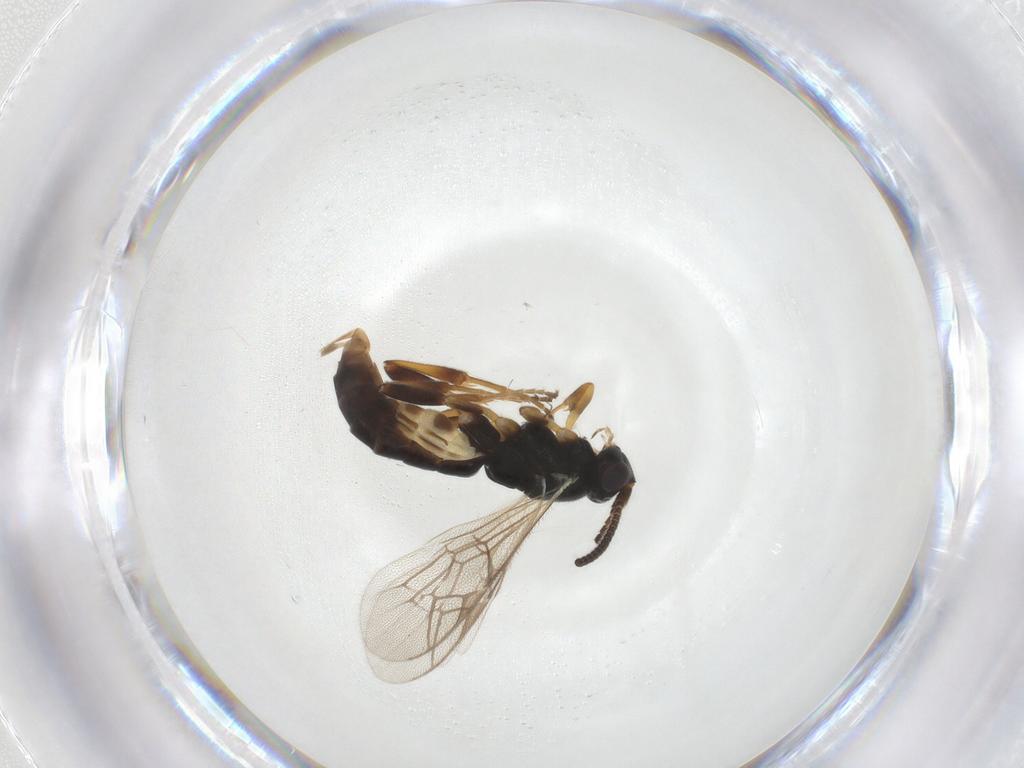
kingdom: Animalia
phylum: Arthropoda
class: Insecta
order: Hymenoptera
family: Ichneumonidae
